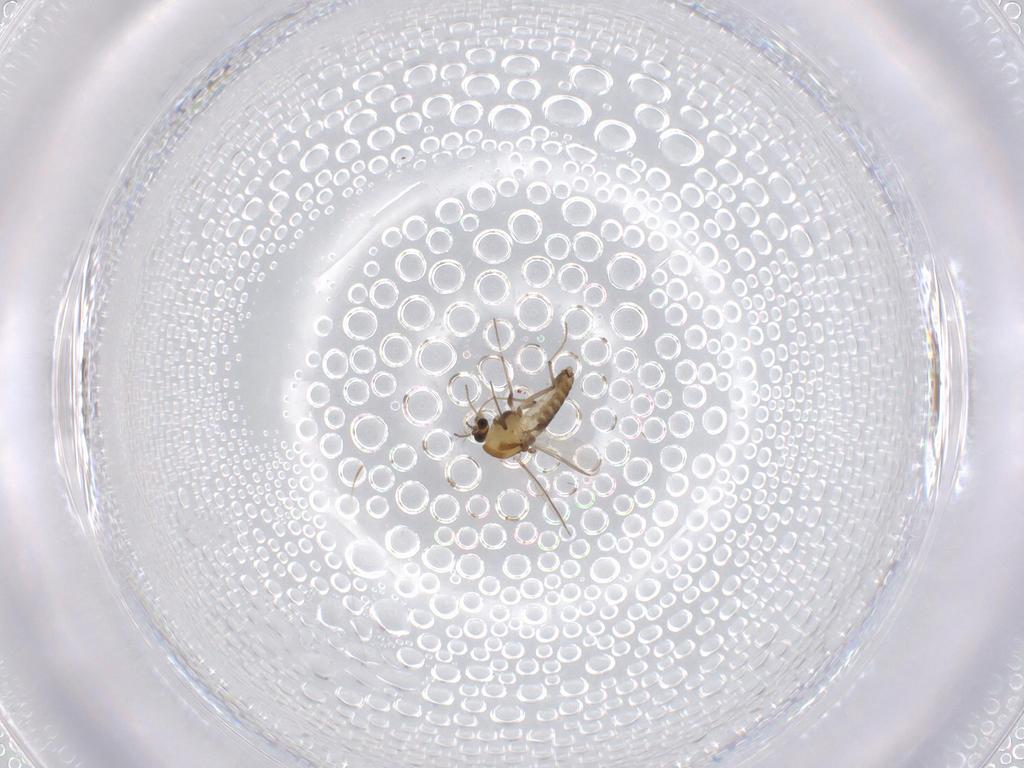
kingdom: Animalia
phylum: Arthropoda
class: Insecta
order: Diptera
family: Chironomidae
